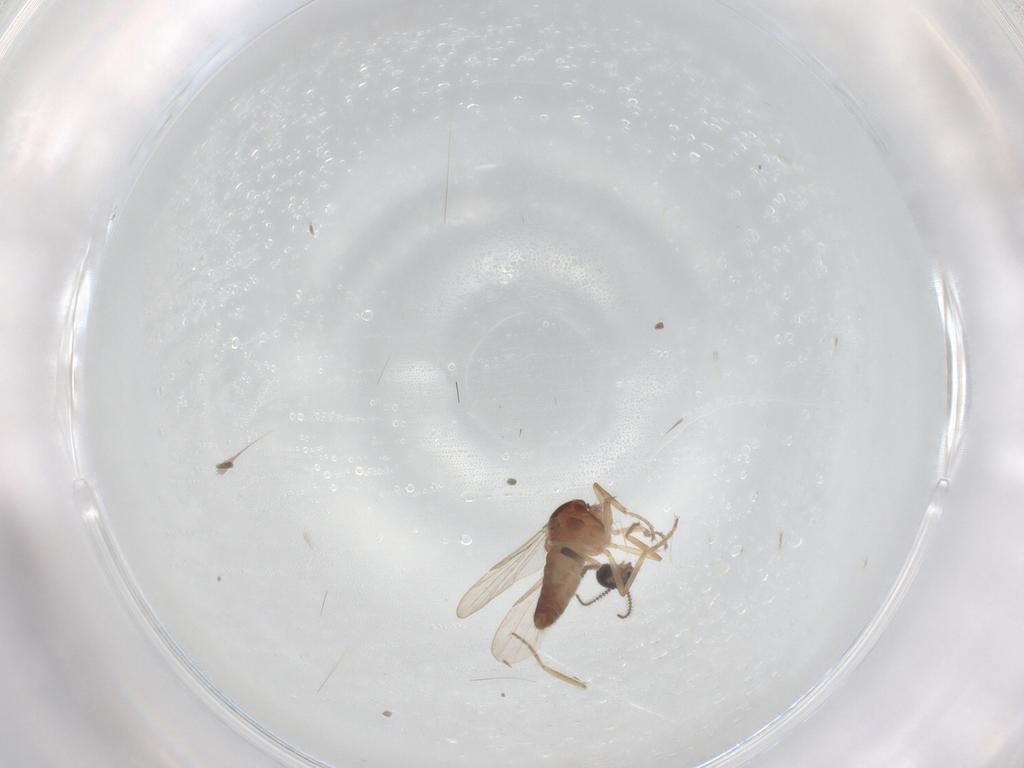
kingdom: Animalia
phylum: Arthropoda
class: Insecta
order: Diptera
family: Ceratopogonidae
